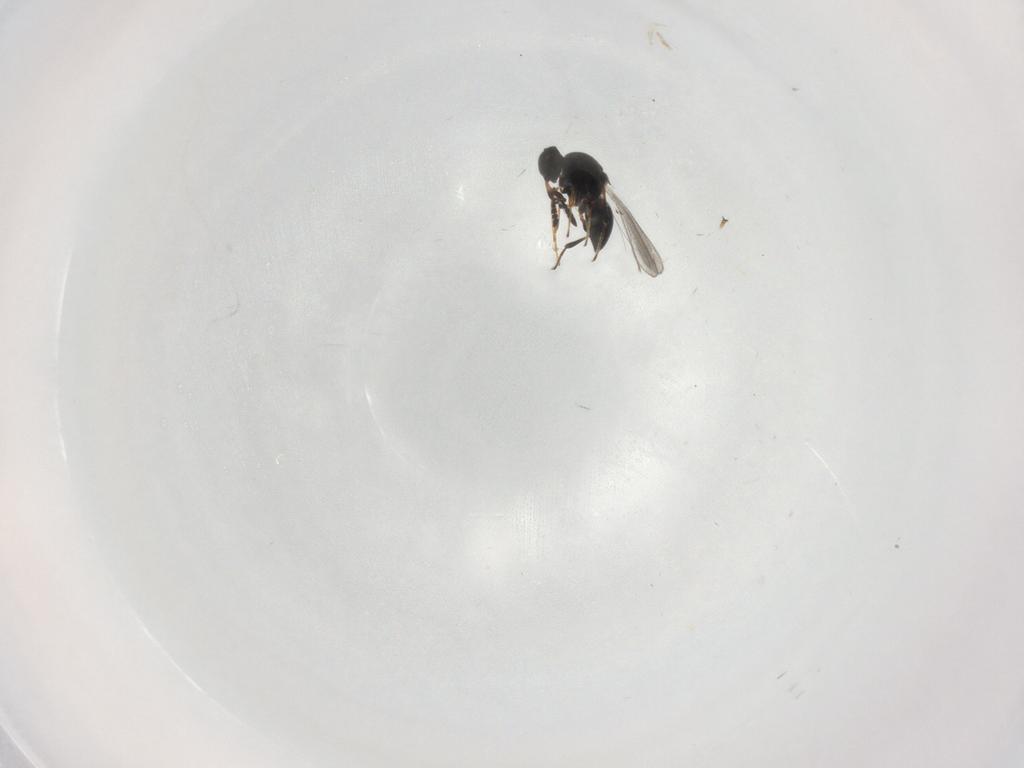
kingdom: Animalia
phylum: Arthropoda
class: Insecta
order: Hymenoptera
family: Platygastridae
